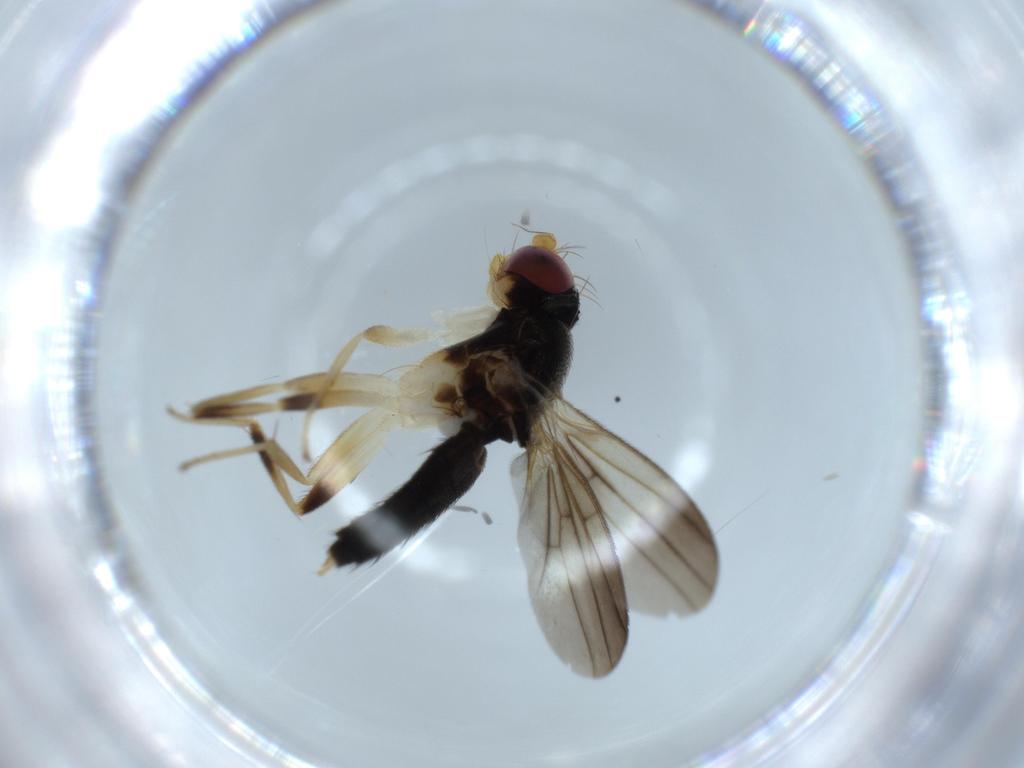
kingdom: Animalia
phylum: Arthropoda
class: Insecta
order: Diptera
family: Clusiidae
